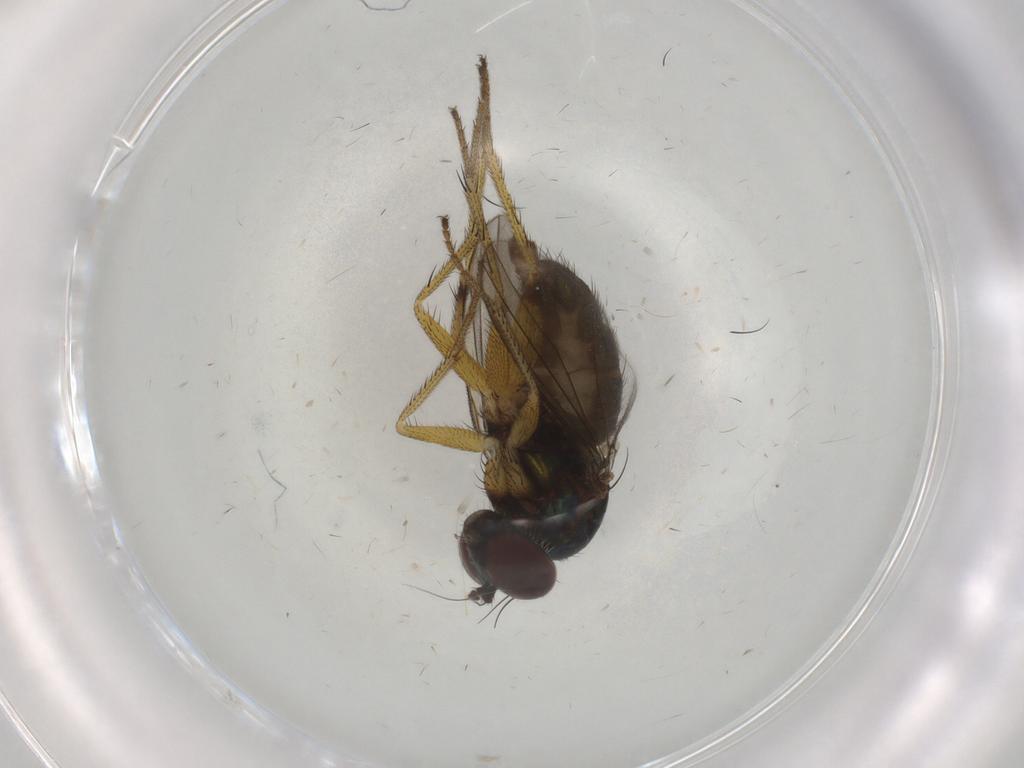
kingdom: Animalia
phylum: Arthropoda
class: Insecta
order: Diptera
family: Dolichopodidae
